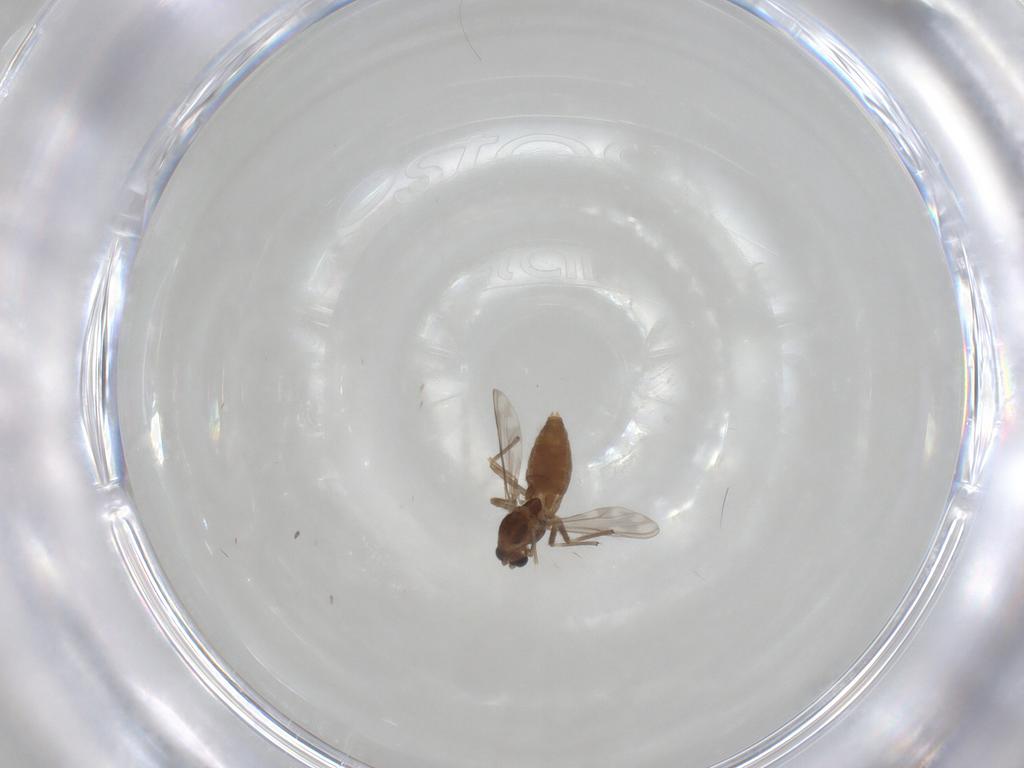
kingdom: Animalia
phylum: Arthropoda
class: Insecta
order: Diptera
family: Chironomidae
